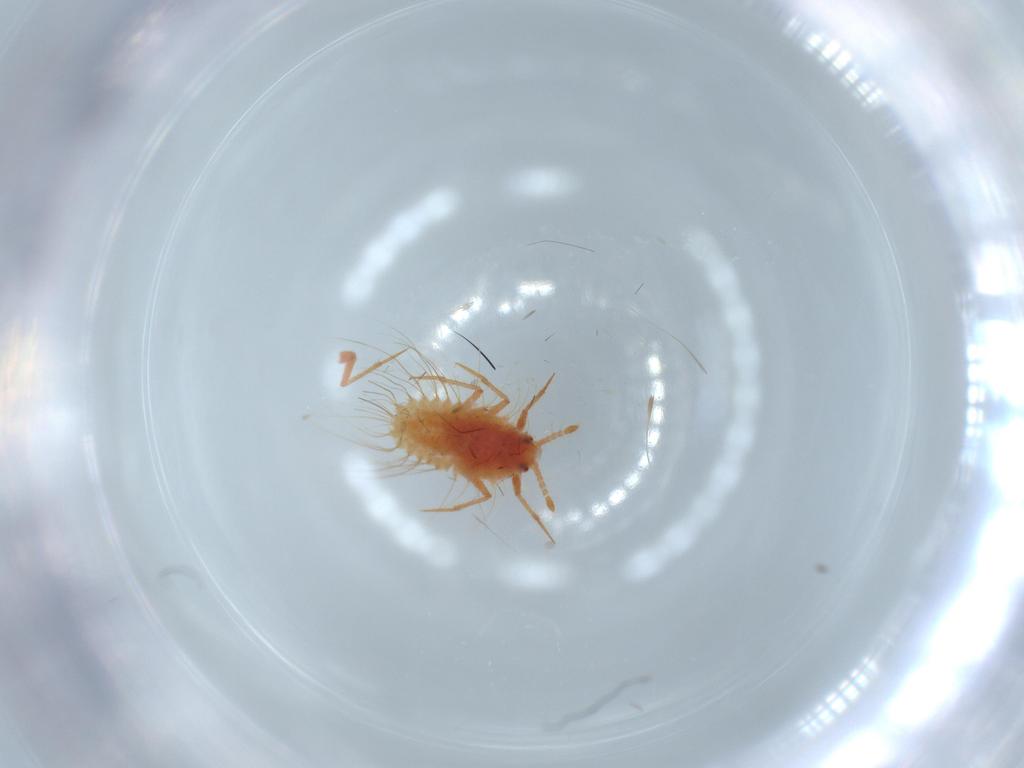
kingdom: Animalia
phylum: Arthropoda
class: Insecta
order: Hemiptera
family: Monophlebidae
